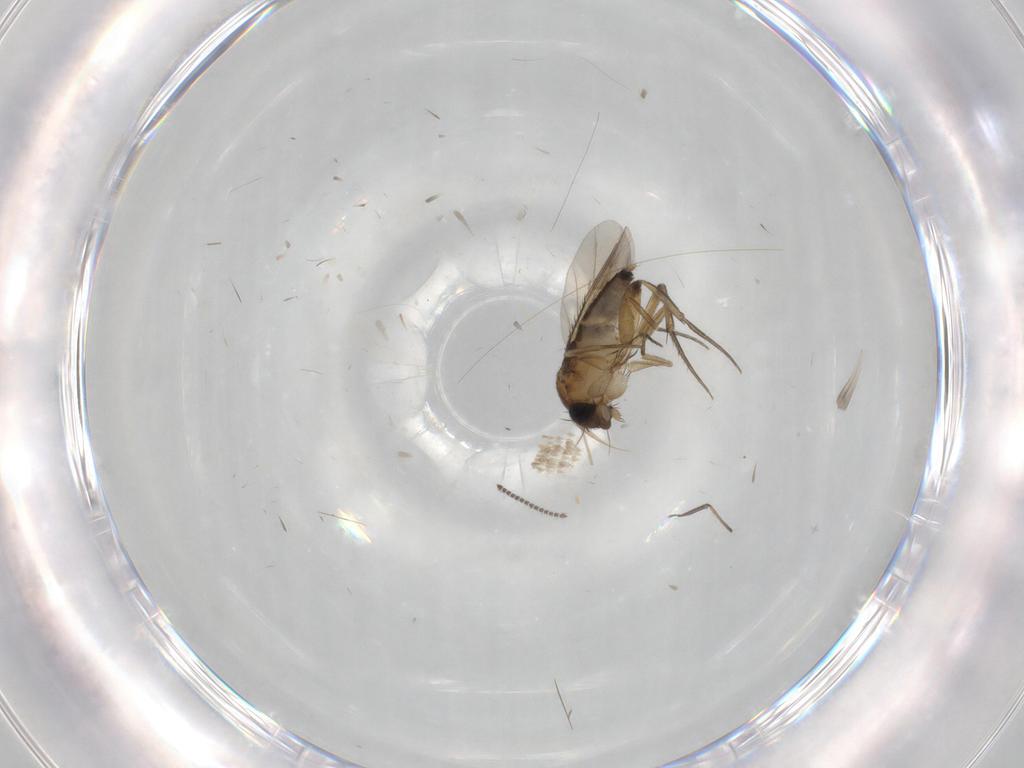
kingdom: Animalia
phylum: Arthropoda
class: Insecta
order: Diptera
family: Sciaridae
